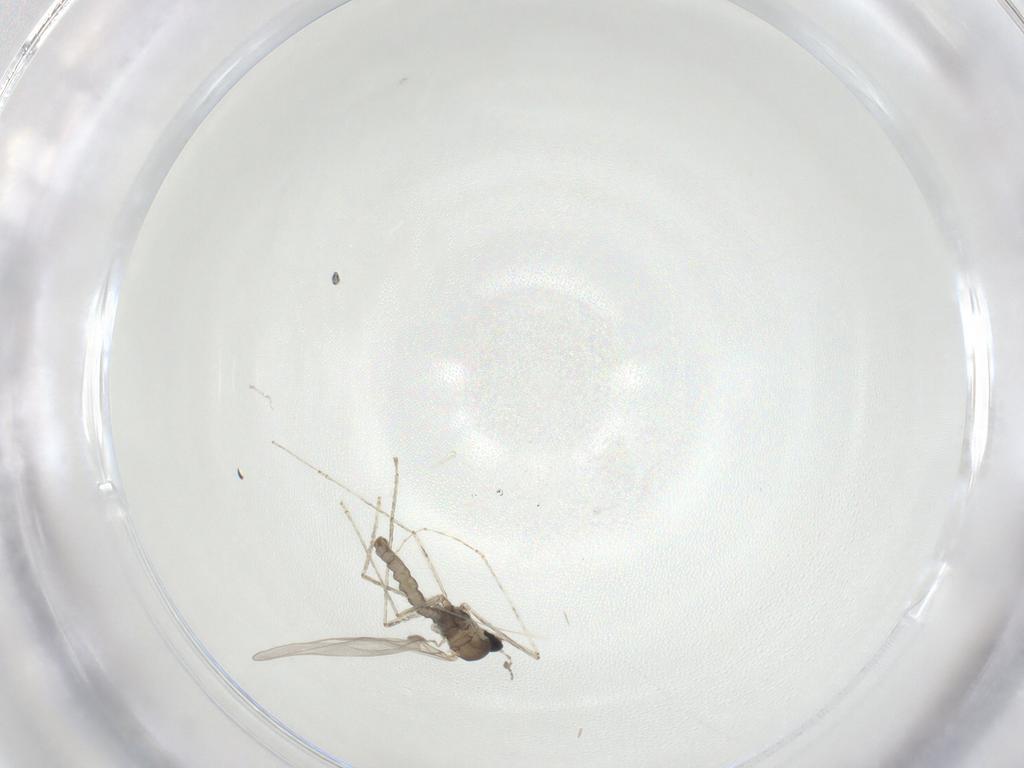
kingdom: Animalia
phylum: Arthropoda
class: Insecta
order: Diptera
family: Cecidomyiidae
